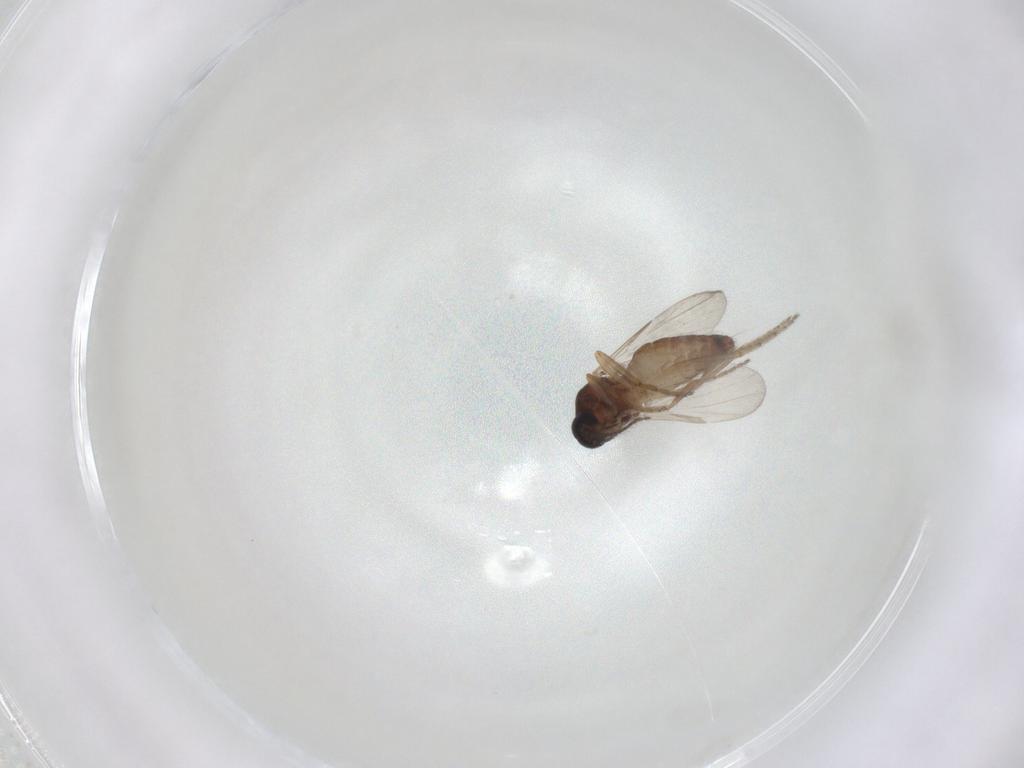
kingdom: Animalia
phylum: Arthropoda
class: Insecta
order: Diptera
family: Ceratopogonidae
